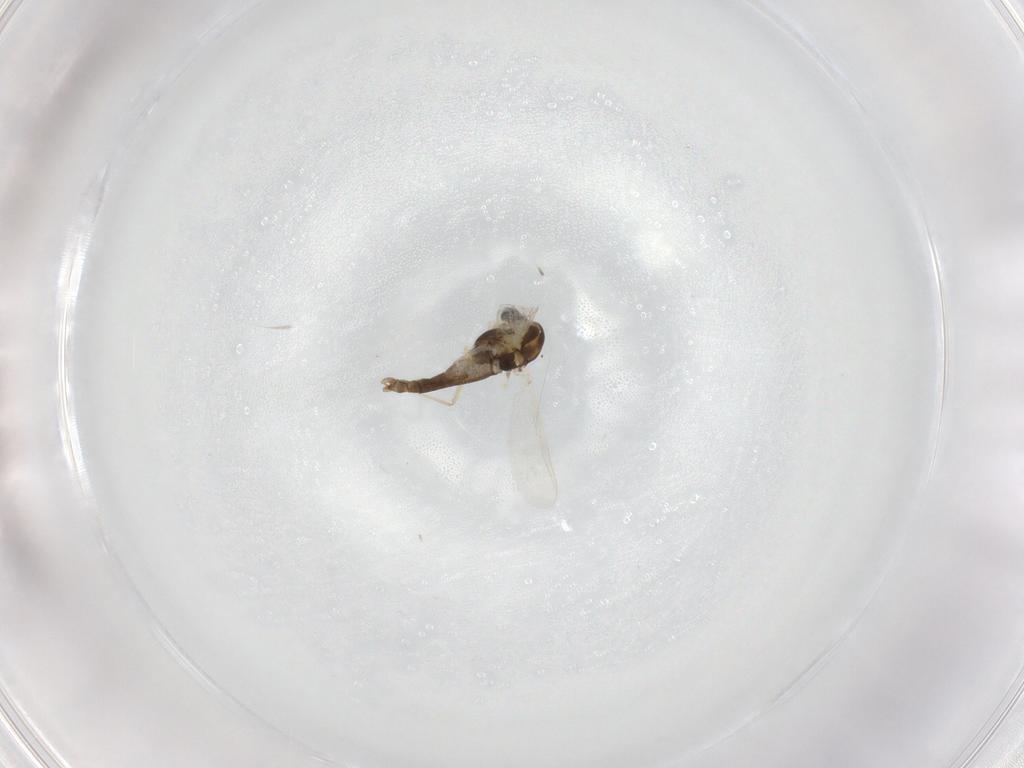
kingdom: Animalia
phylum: Arthropoda
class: Insecta
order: Diptera
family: Chironomidae
